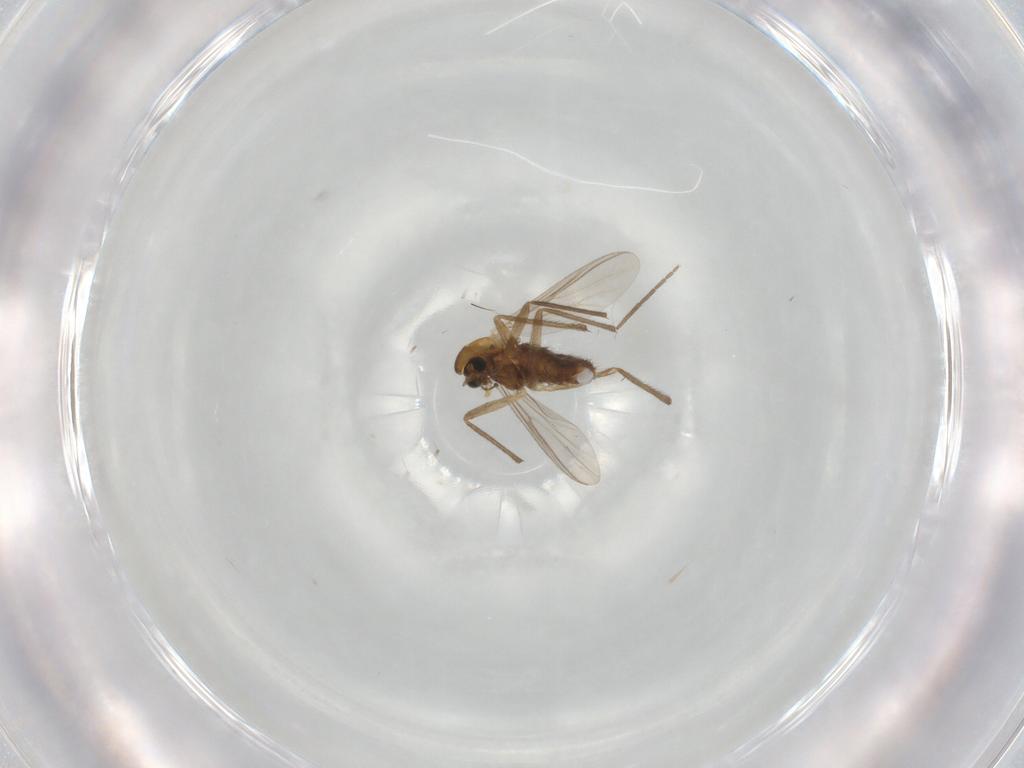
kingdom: Animalia
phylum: Arthropoda
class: Insecta
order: Diptera
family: Chironomidae
